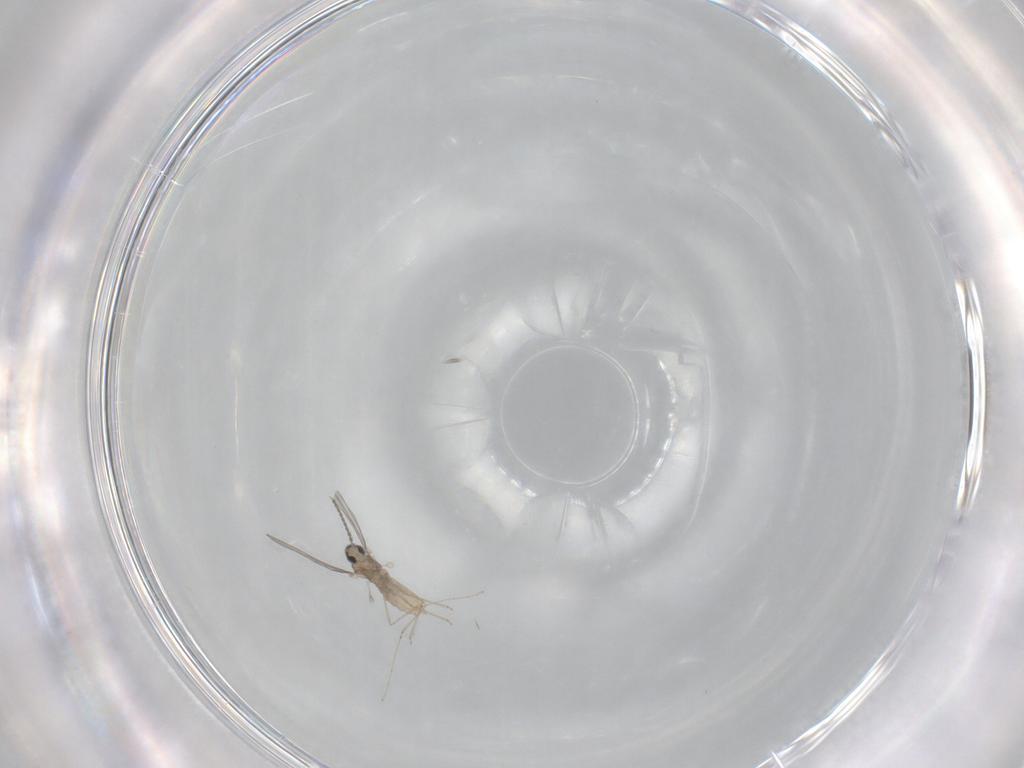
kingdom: Animalia
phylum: Arthropoda
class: Insecta
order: Diptera
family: Cecidomyiidae
